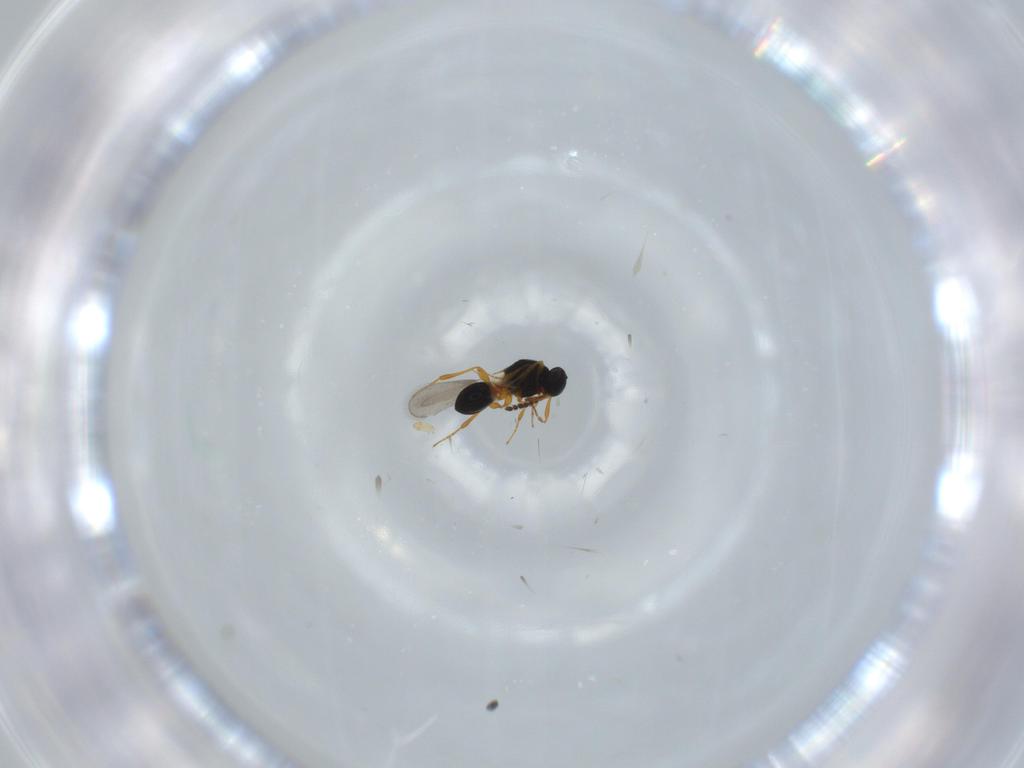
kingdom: Animalia
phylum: Arthropoda
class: Insecta
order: Hymenoptera
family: Platygastridae
